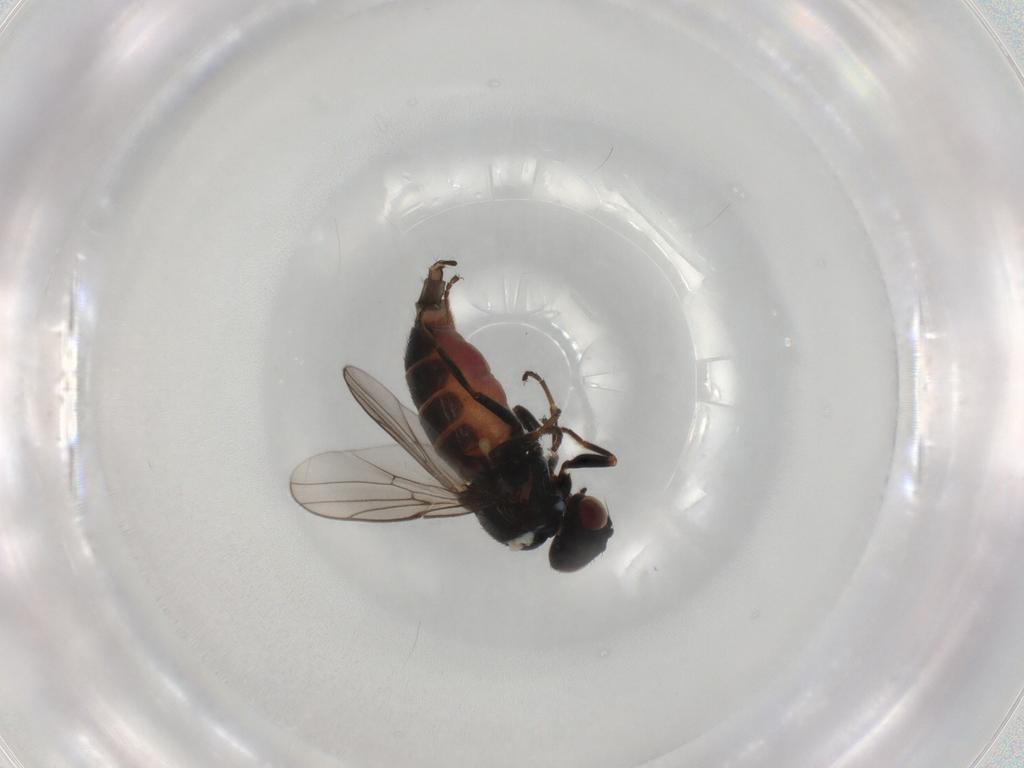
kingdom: Animalia
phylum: Arthropoda
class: Insecta
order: Diptera
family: Chloropidae
